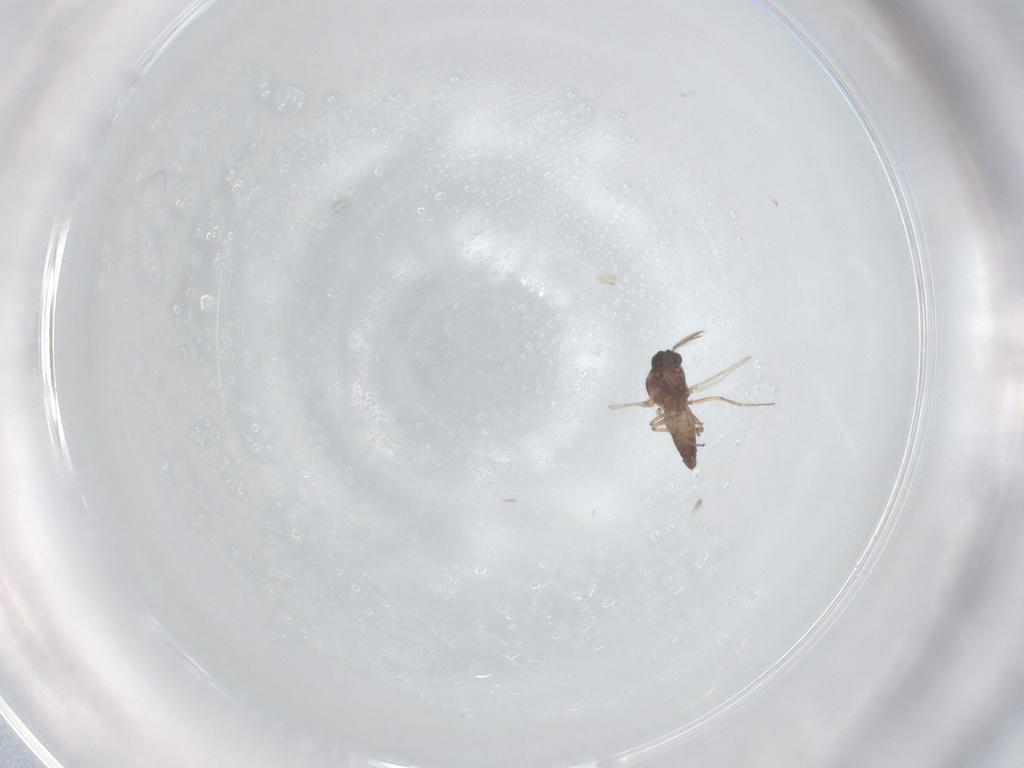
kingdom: Animalia
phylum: Arthropoda
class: Insecta
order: Diptera
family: Ceratopogonidae
